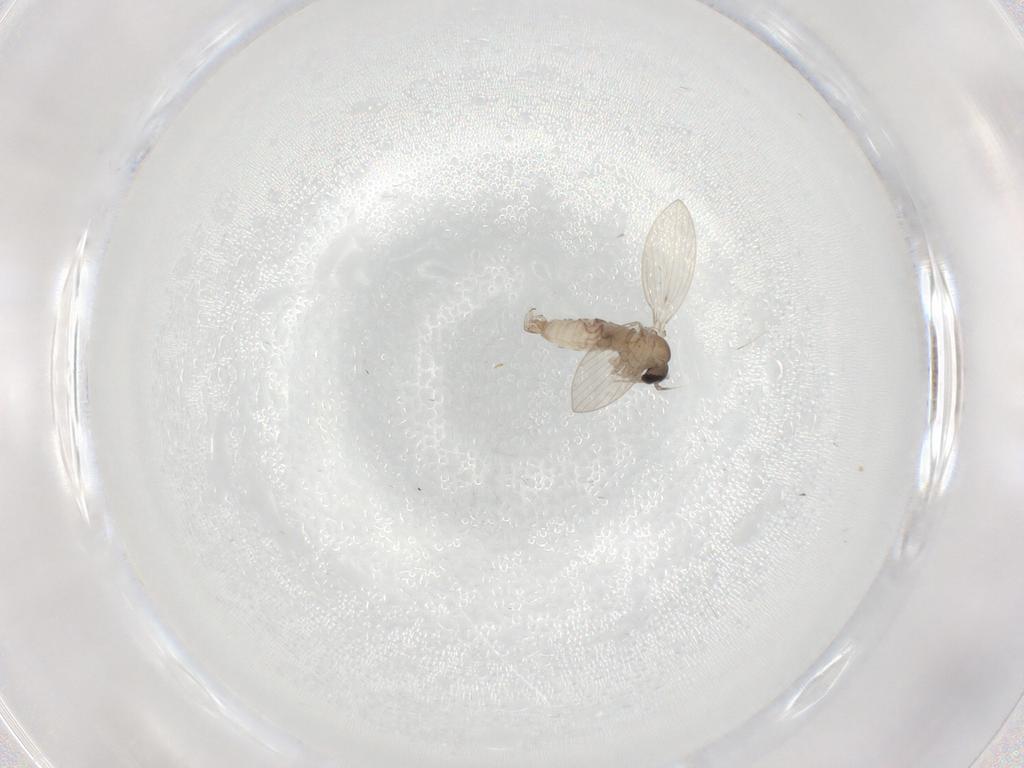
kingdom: Animalia
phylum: Arthropoda
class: Insecta
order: Diptera
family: Psychodidae
